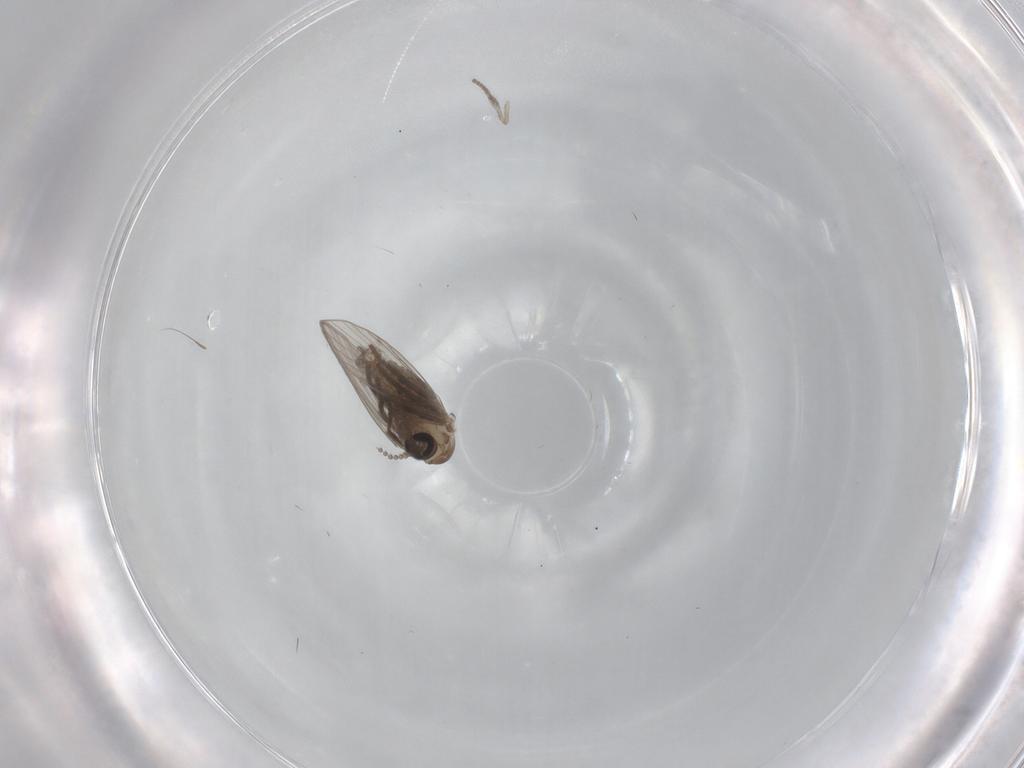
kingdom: Animalia
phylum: Arthropoda
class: Insecta
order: Diptera
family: Psychodidae
